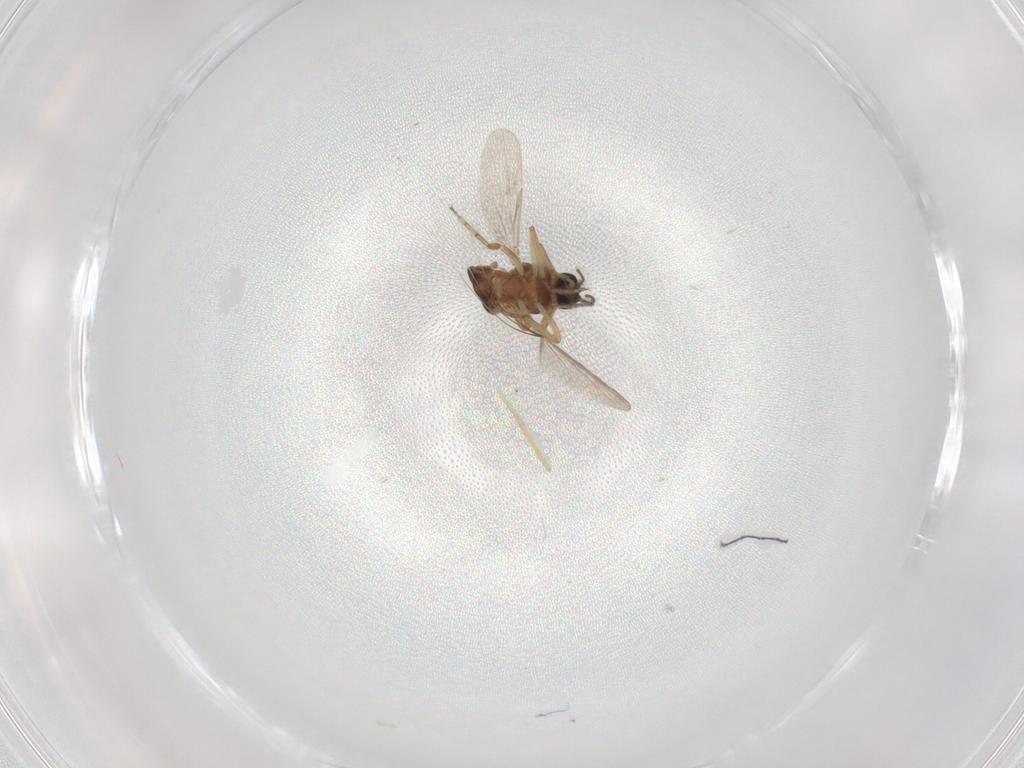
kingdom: Animalia
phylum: Arthropoda
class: Insecta
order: Diptera
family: Ceratopogonidae
